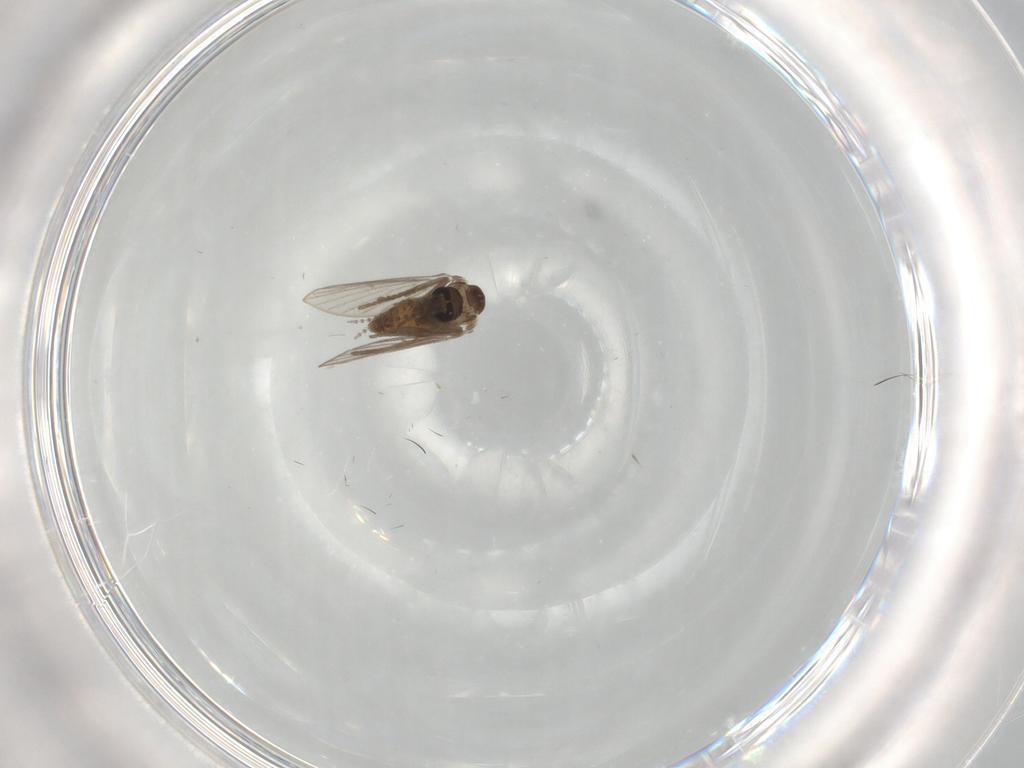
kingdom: Animalia
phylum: Arthropoda
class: Insecta
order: Diptera
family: Psychodidae
